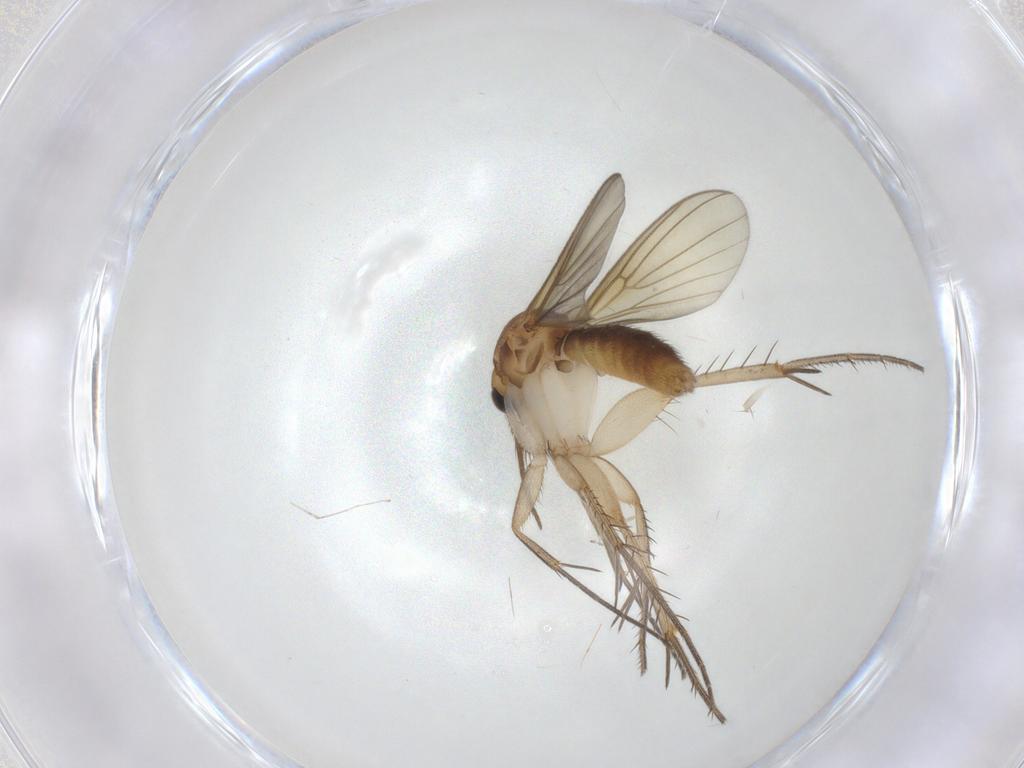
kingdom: Animalia
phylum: Arthropoda
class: Insecta
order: Diptera
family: Mycetophilidae
